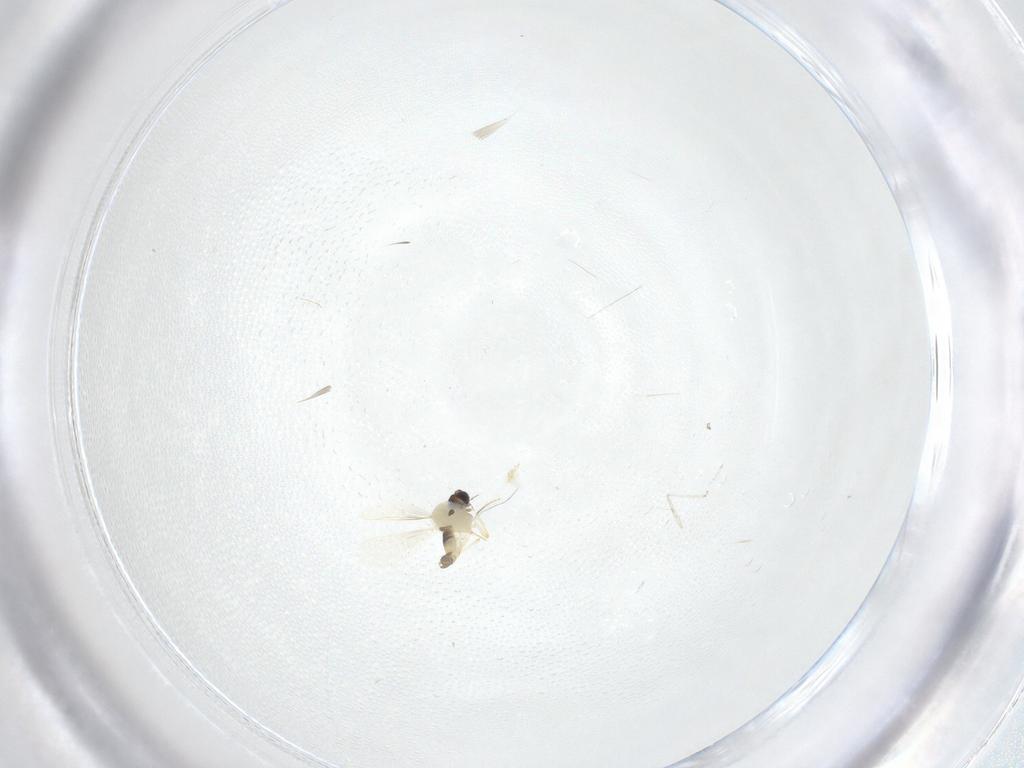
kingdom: Animalia
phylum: Arthropoda
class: Insecta
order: Diptera
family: Chironomidae
